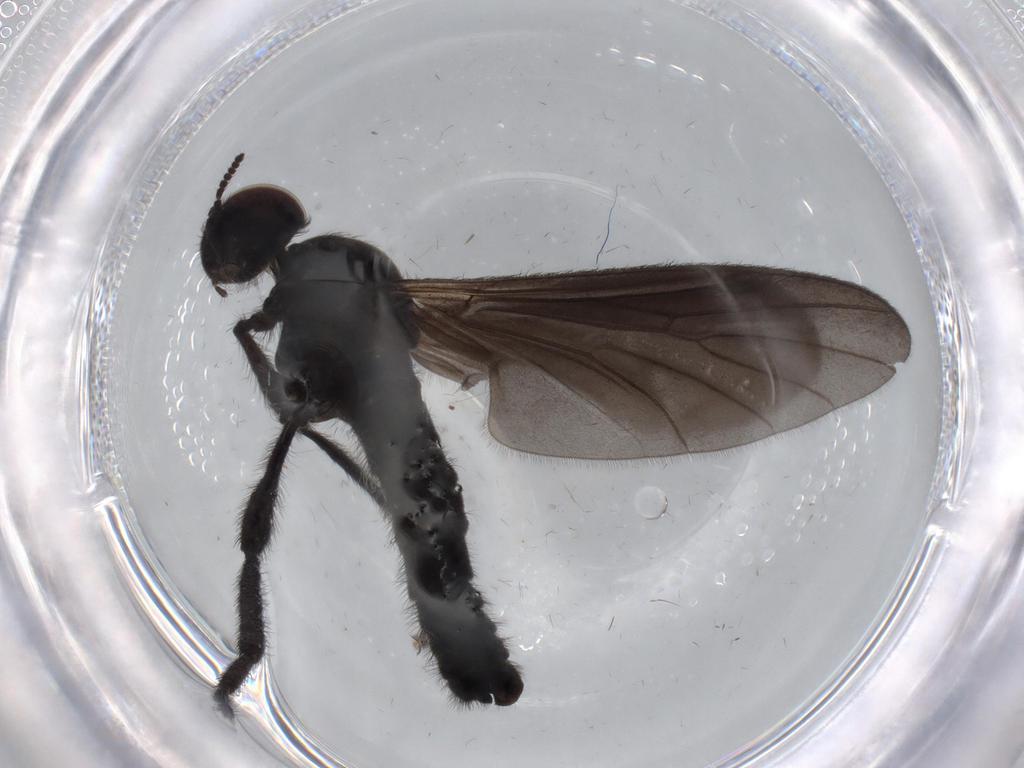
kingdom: Animalia
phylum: Arthropoda
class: Insecta
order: Diptera
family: Bibionidae
